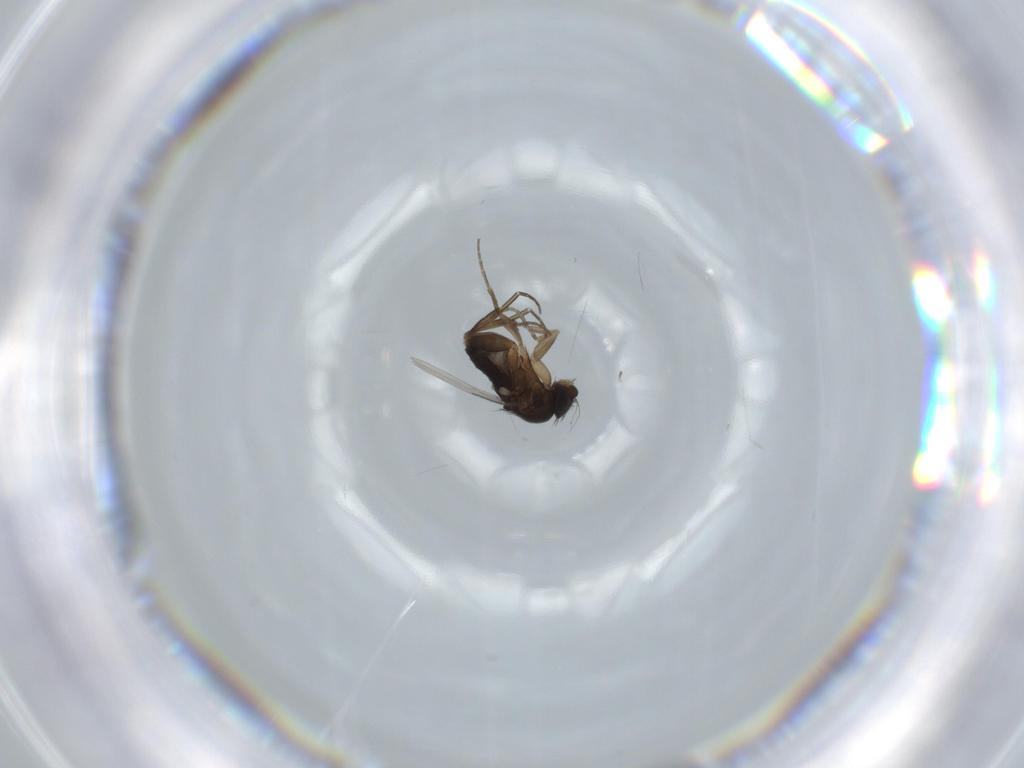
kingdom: Animalia
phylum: Arthropoda
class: Insecta
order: Diptera
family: Phoridae
